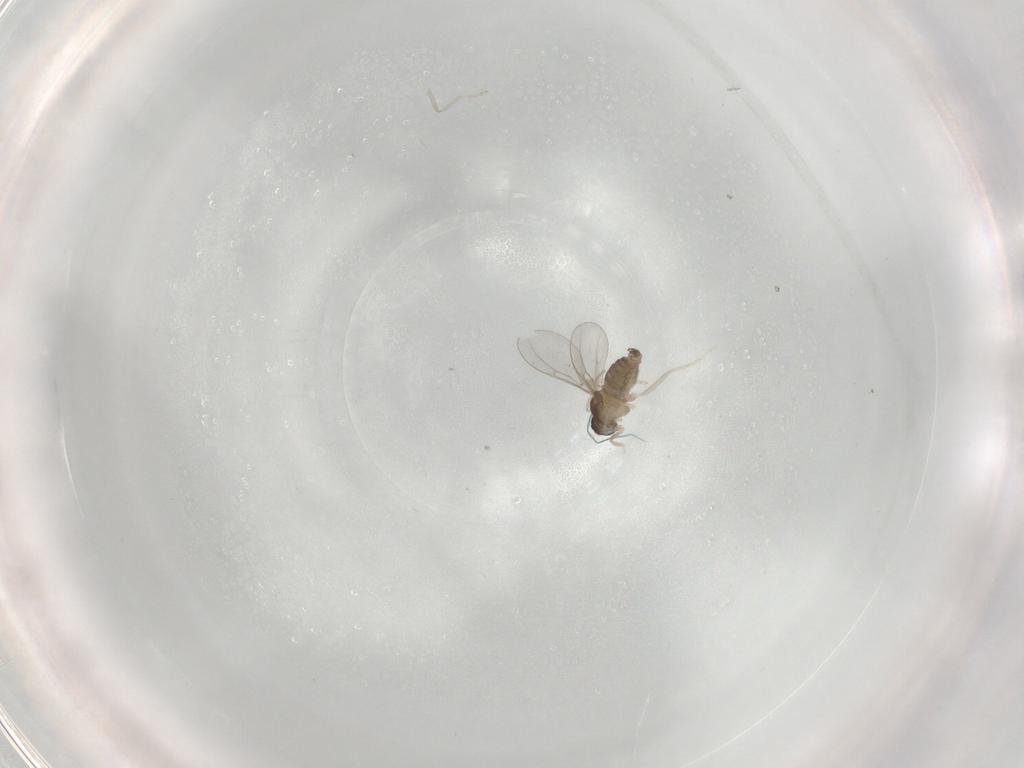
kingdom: Animalia
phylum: Arthropoda
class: Insecta
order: Diptera
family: Cecidomyiidae
